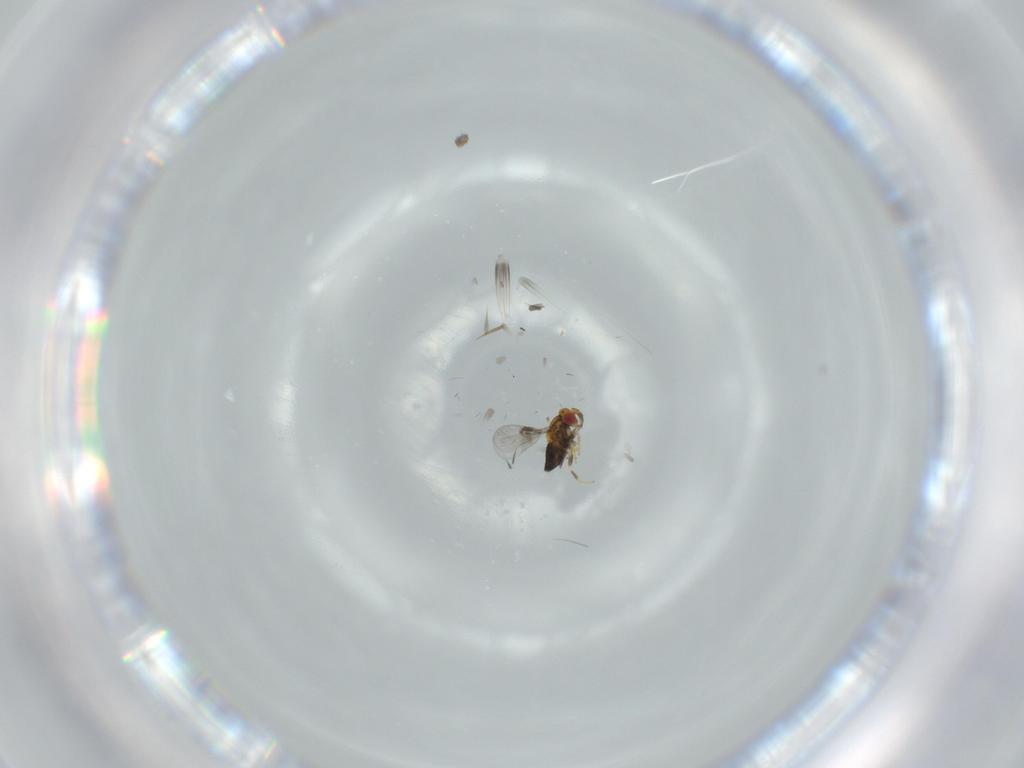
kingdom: Animalia
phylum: Arthropoda
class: Insecta
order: Hymenoptera
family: Trichogrammatidae
